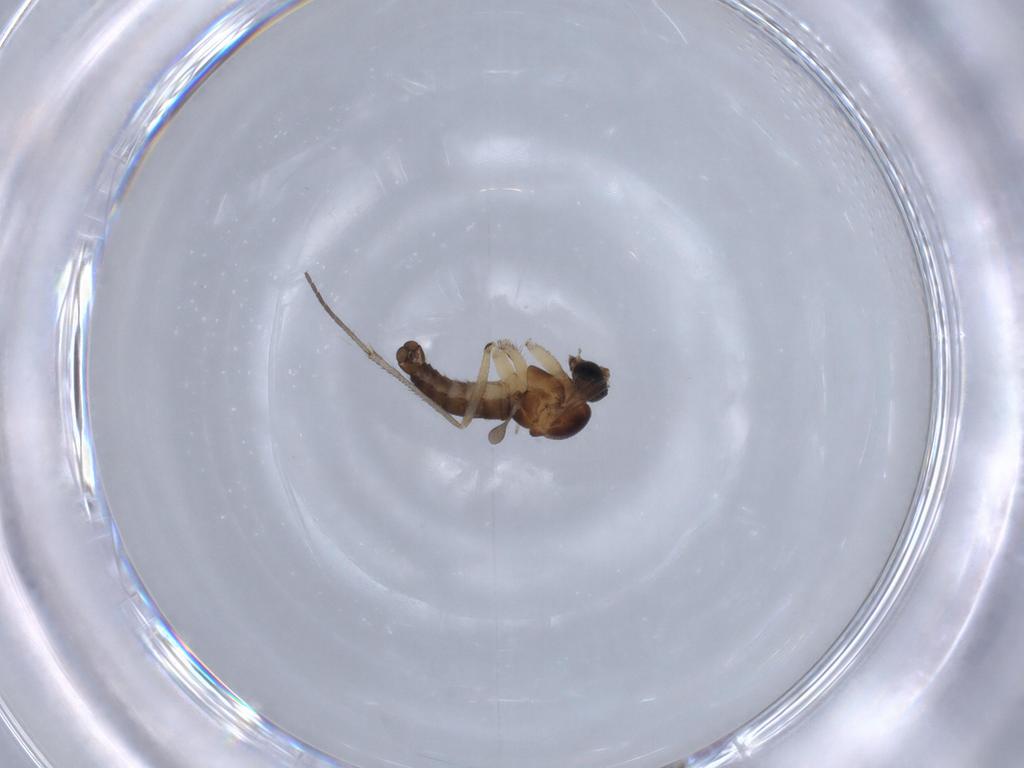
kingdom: Animalia
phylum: Arthropoda
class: Insecta
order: Diptera
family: Sciaridae
